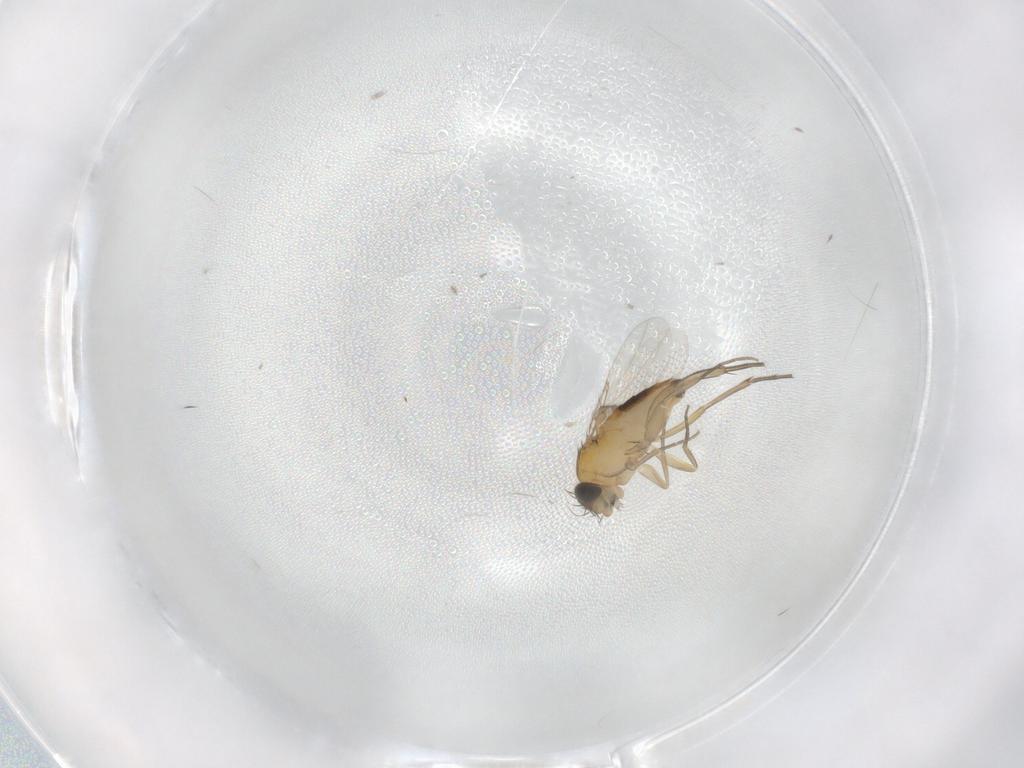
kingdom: Animalia
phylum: Arthropoda
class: Insecta
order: Diptera
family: Phoridae
